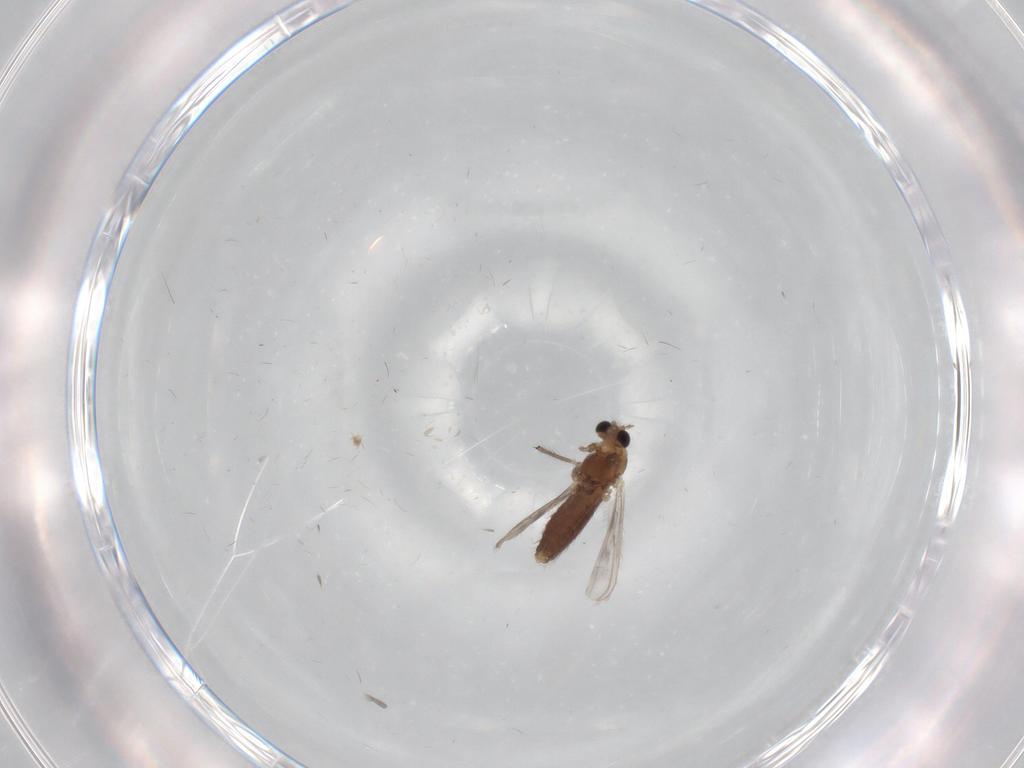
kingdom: Animalia
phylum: Arthropoda
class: Insecta
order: Diptera
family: Chironomidae
